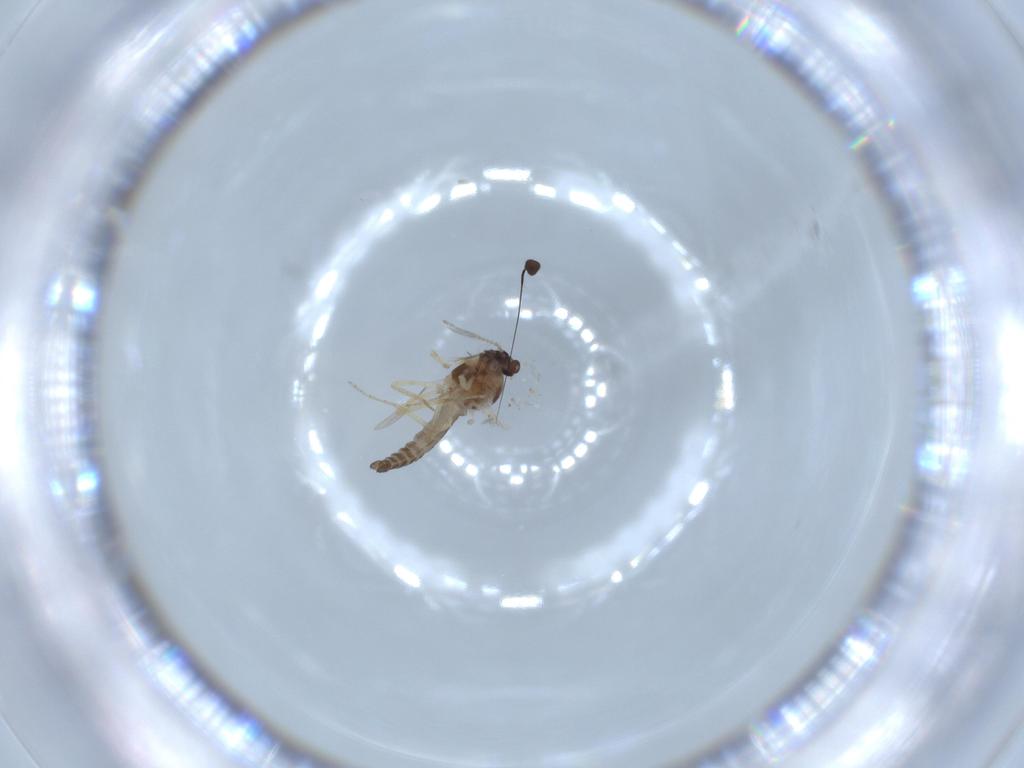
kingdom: Animalia
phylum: Arthropoda
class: Insecta
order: Diptera
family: Ceratopogonidae
